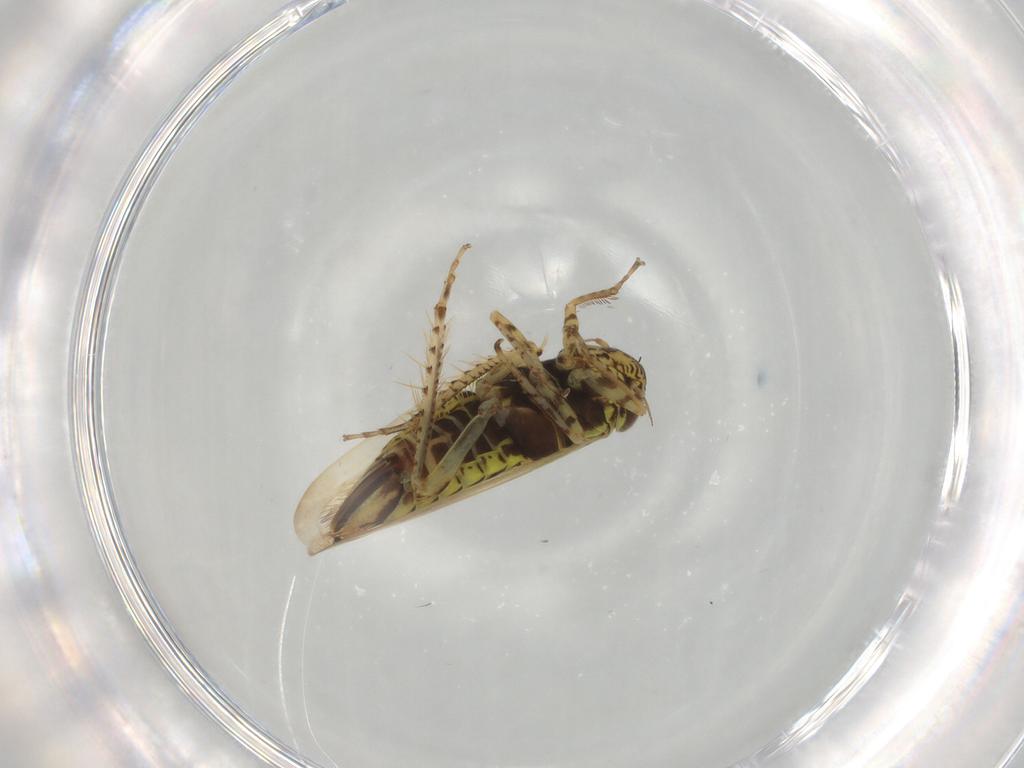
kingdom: Animalia
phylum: Arthropoda
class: Insecta
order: Hemiptera
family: Cicadellidae
